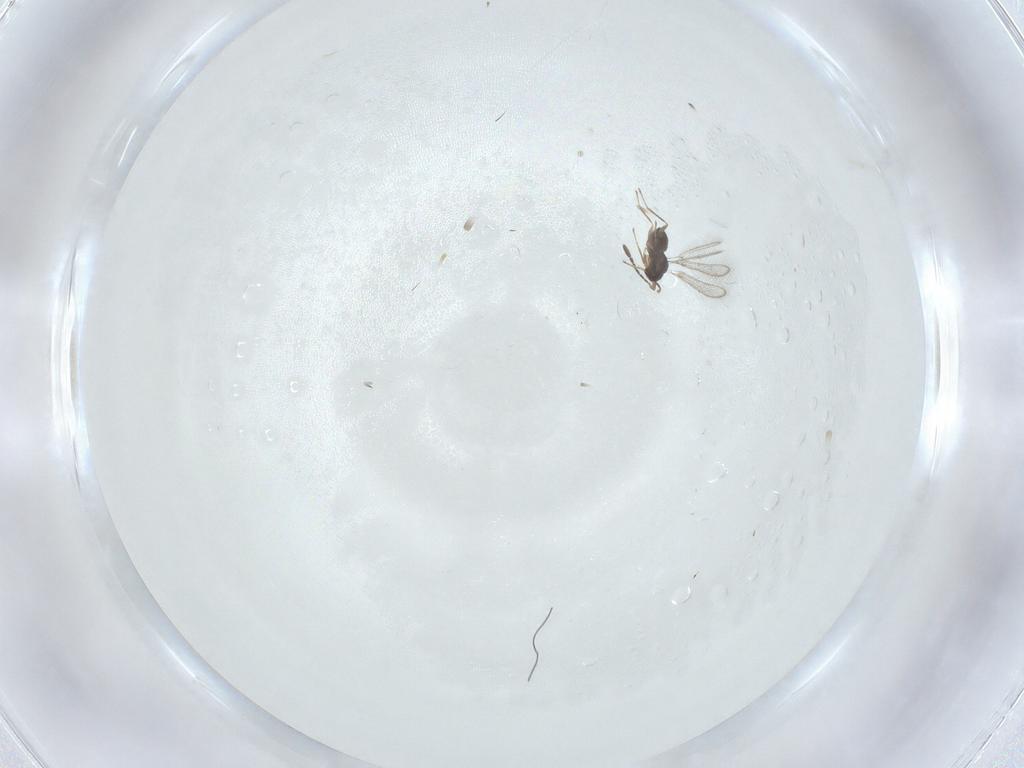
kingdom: Animalia
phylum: Arthropoda
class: Insecta
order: Hymenoptera
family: Mymaridae
